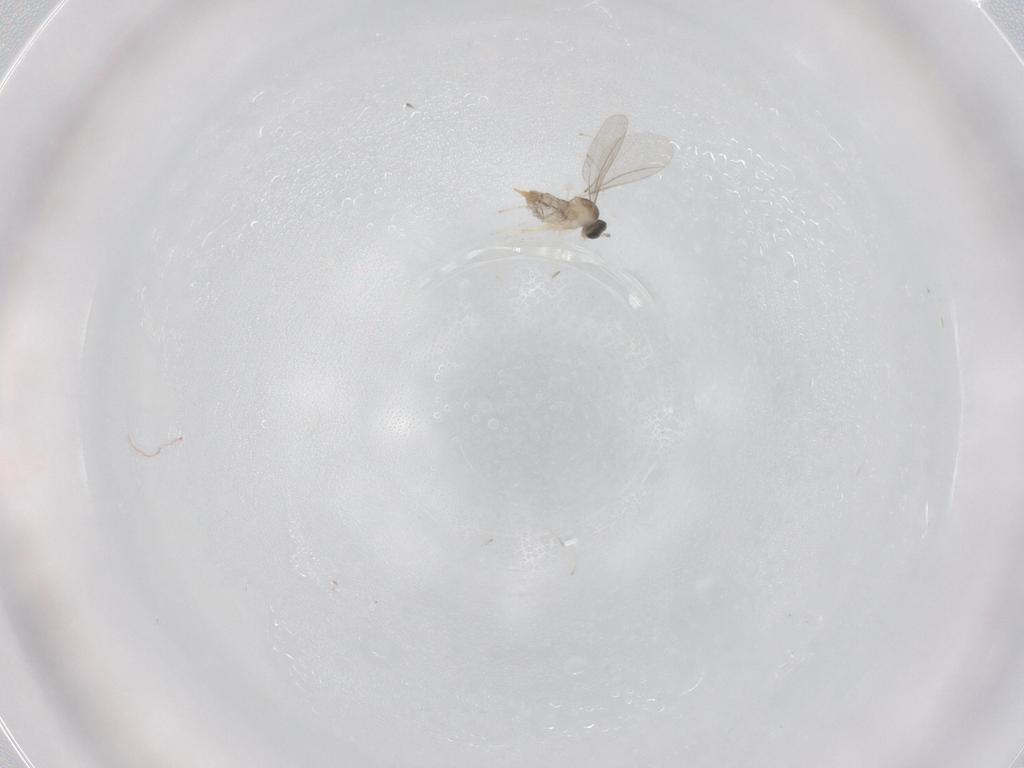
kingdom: Animalia
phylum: Arthropoda
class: Insecta
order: Diptera
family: Cecidomyiidae
